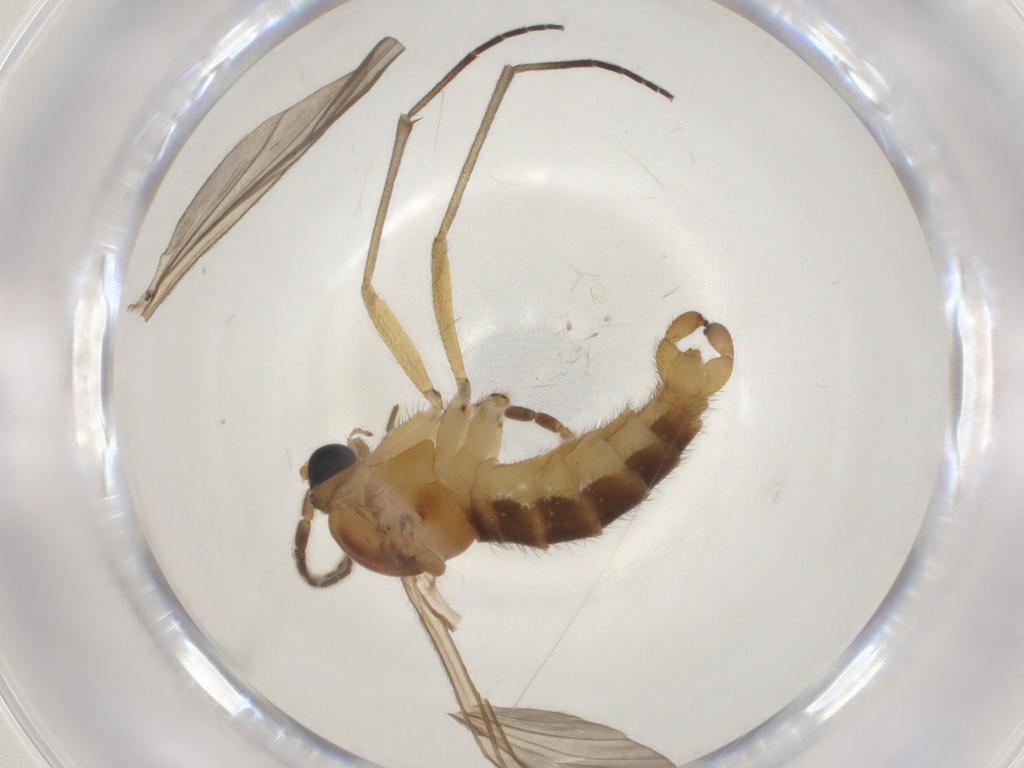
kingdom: Animalia
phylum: Arthropoda
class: Insecta
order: Diptera
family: Sciaridae
